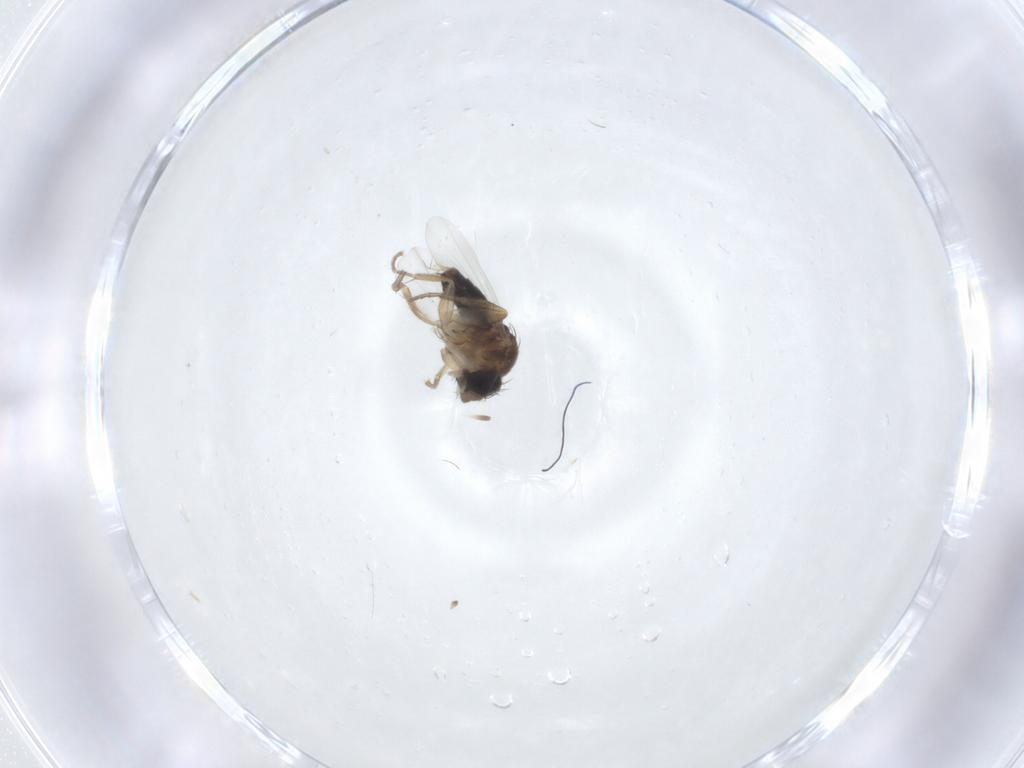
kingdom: Animalia
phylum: Arthropoda
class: Insecta
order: Diptera
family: Phoridae
